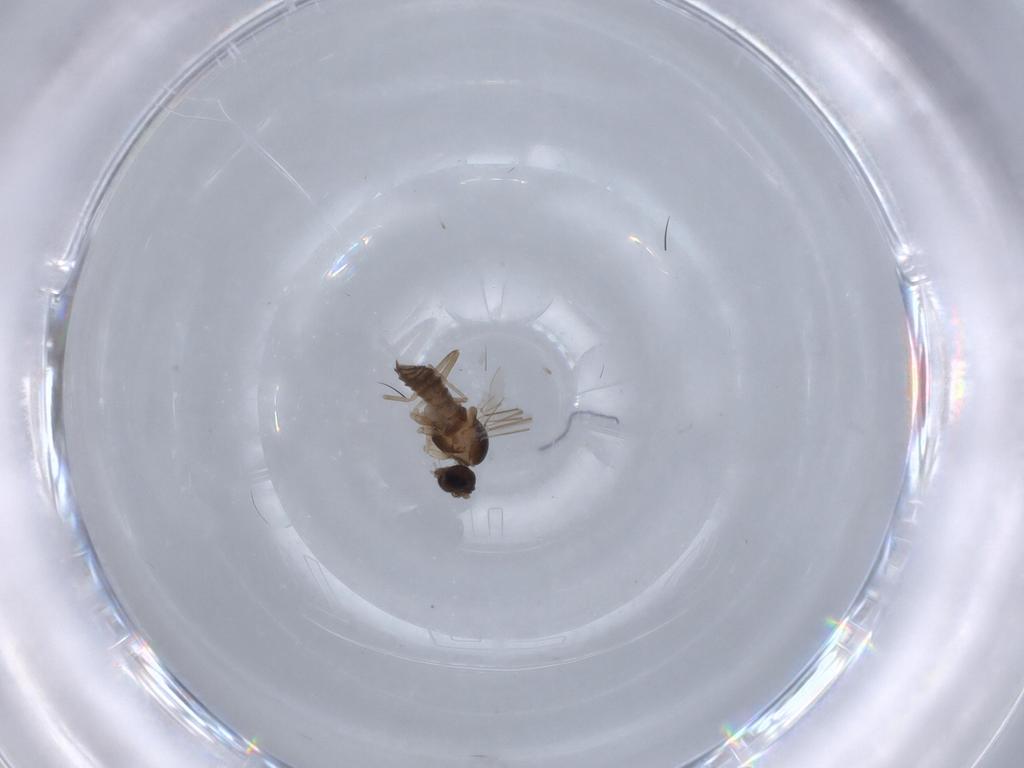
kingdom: Animalia
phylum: Arthropoda
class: Insecta
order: Diptera
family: Cecidomyiidae
